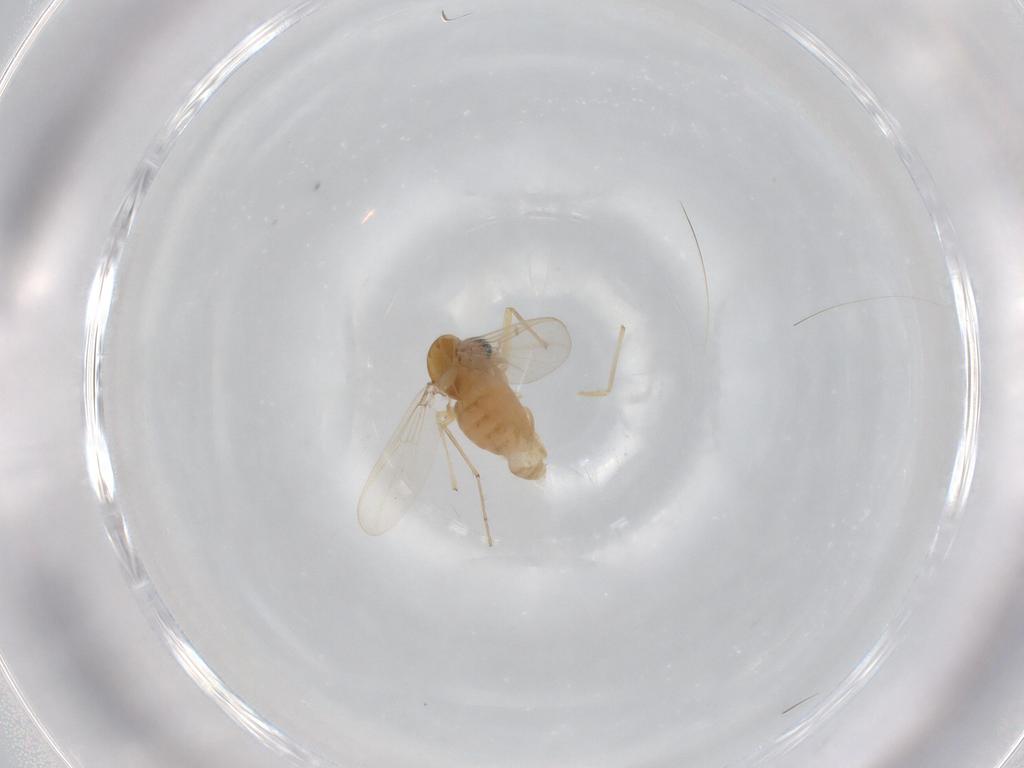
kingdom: Animalia
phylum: Arthropoda
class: Insecta
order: Diptera
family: Chironomidae
